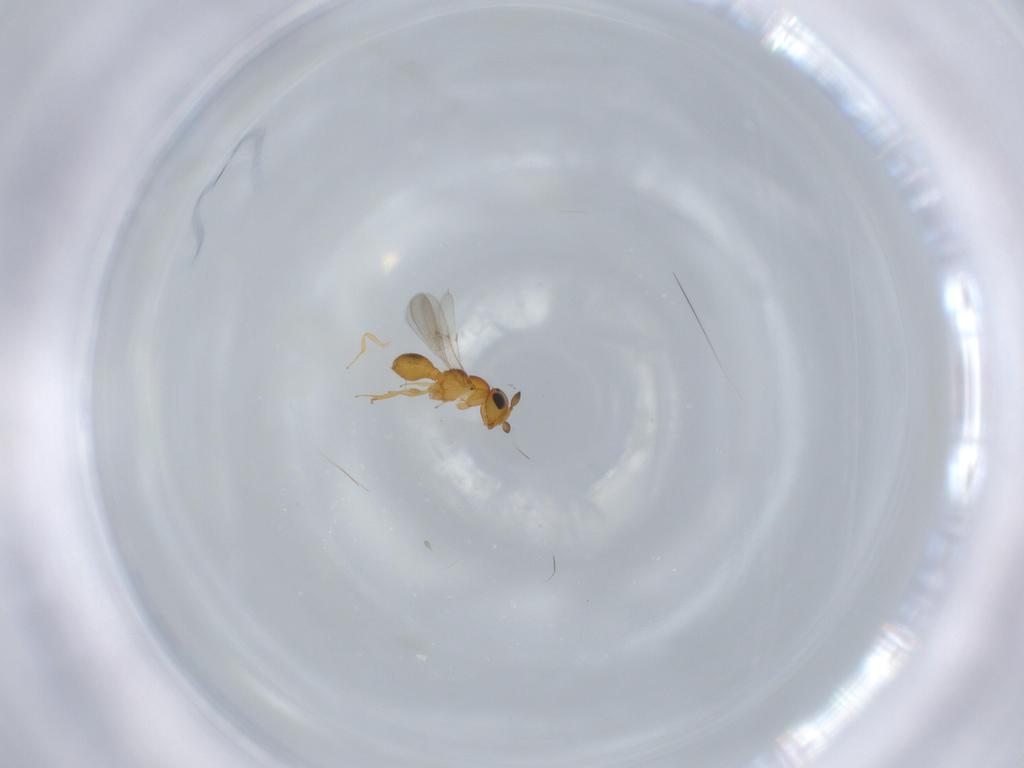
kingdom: Animalia
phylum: Arthropoda
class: Insecta
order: Hymenoptera
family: Scelionidae
